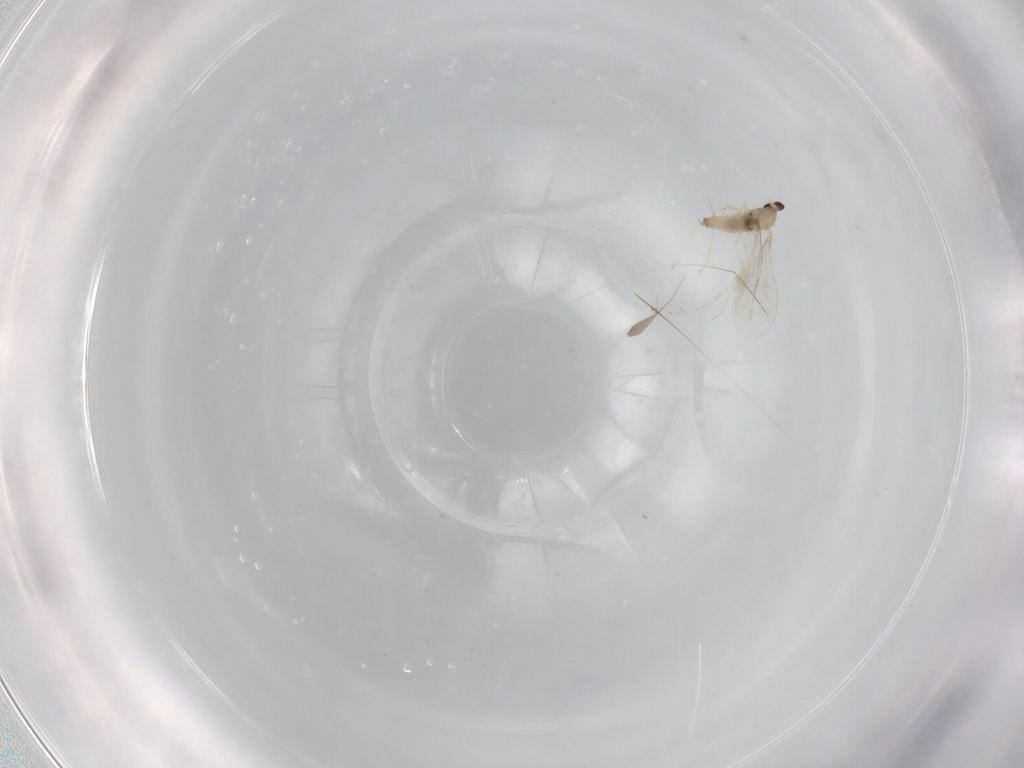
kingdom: Animalia
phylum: Arthropoda
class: Insecta
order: Diptera
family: Cecidomyiidae
